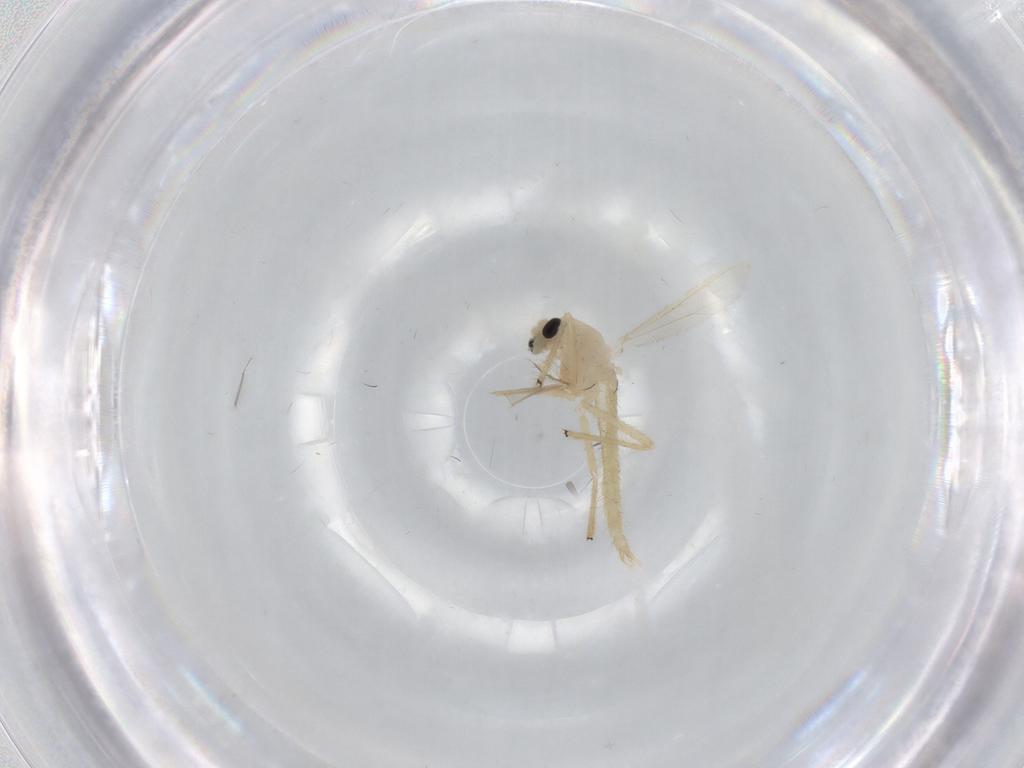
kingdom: Animalia
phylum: Arthropoda
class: Insecta
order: Diptera
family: Chironomidae
